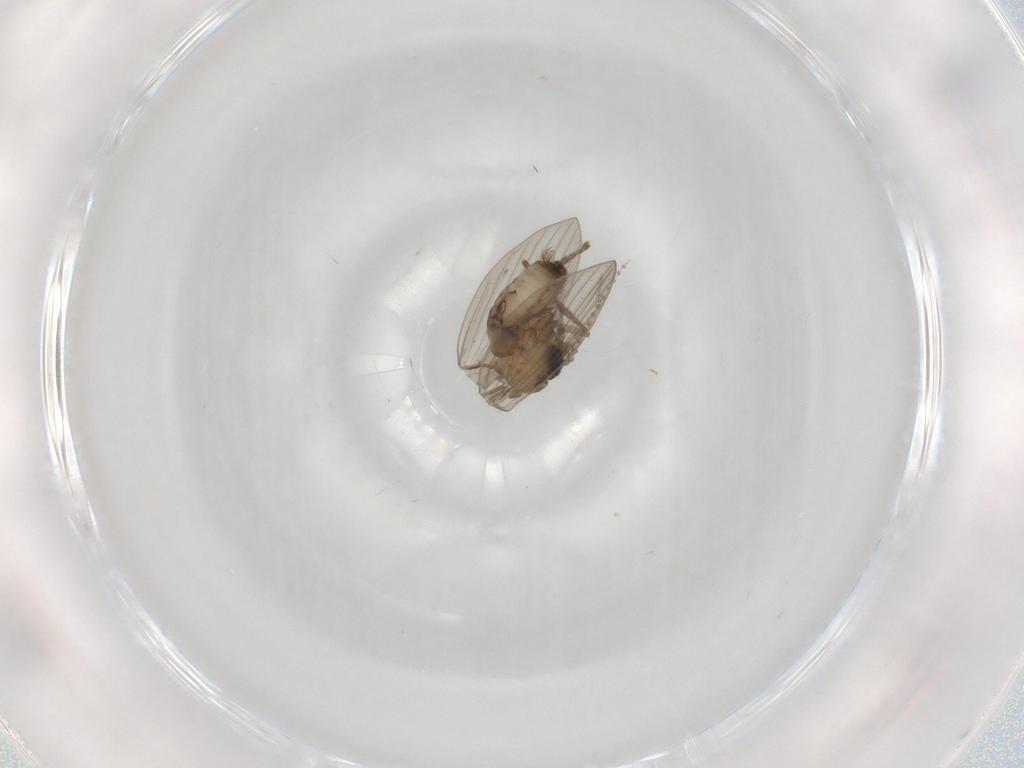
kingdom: Animalia
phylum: Arthropoda
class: Insecta
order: Diptera
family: Psychodidae
